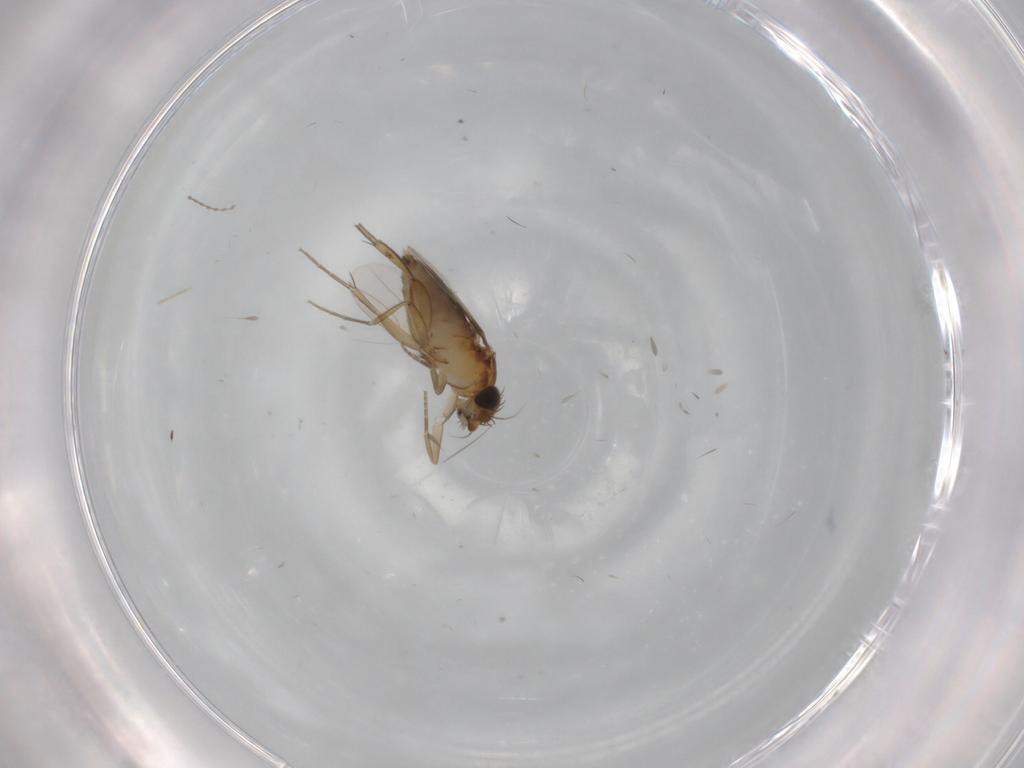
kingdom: Animalia
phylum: Arthropoda
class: Insecta
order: Diptera
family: Phoridae
